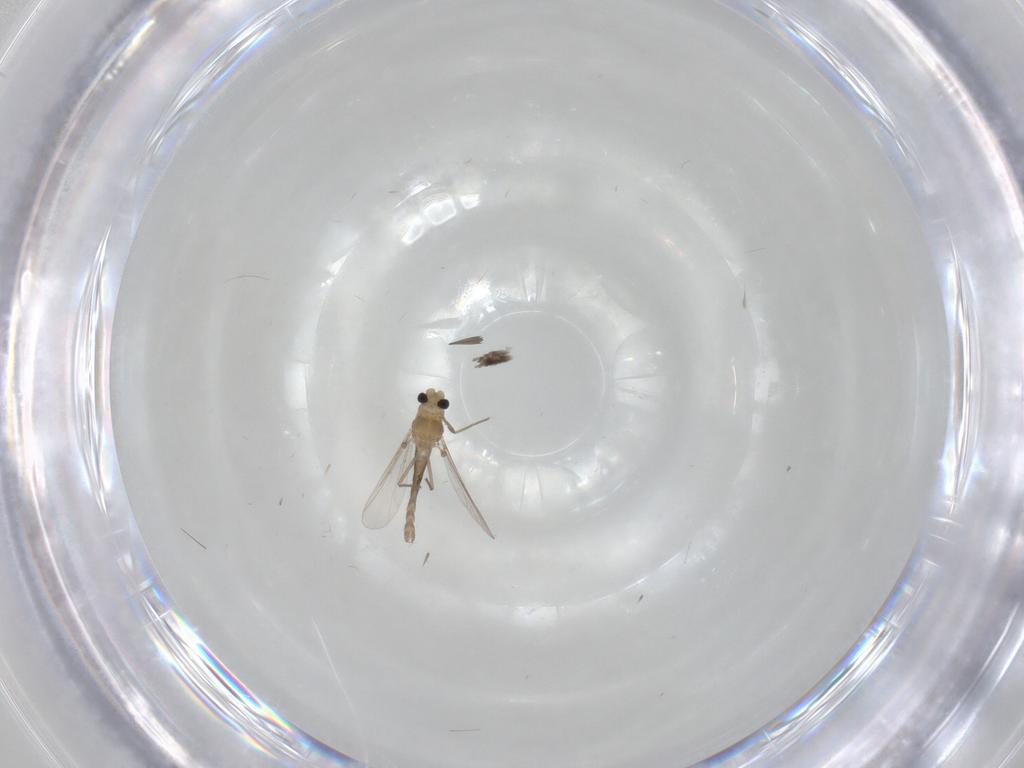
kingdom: Animalia
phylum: Arthropoda
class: Insecta
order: Diptera
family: Chironomidae
